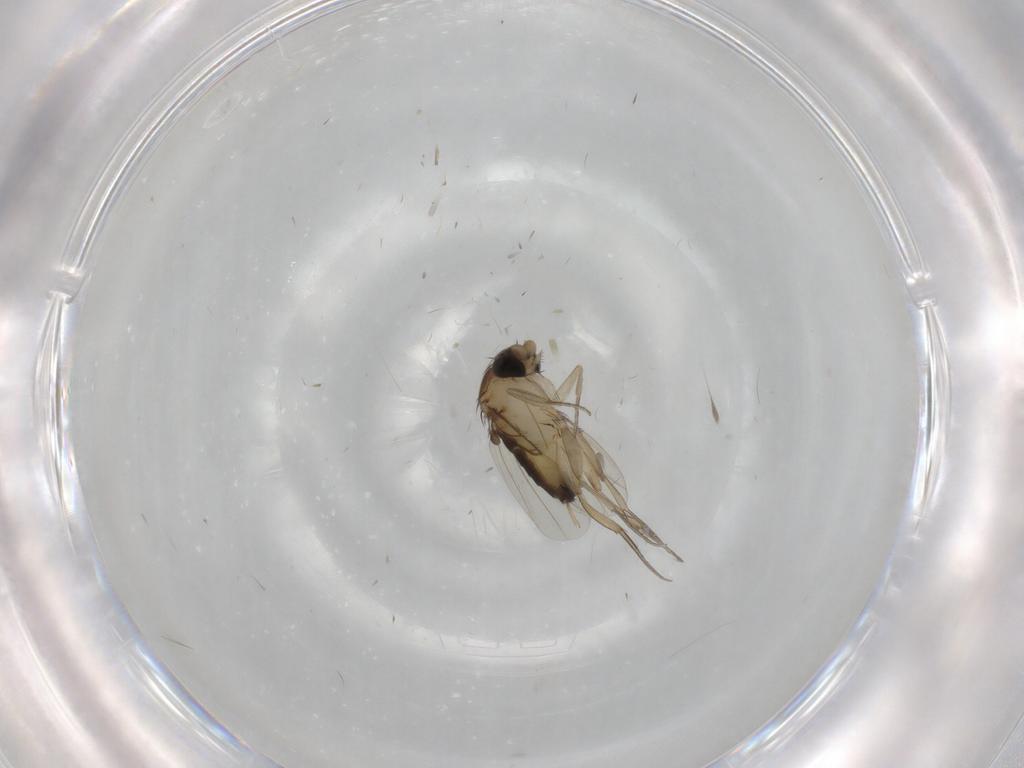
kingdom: Animalia
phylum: Arthropoda
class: Insecta
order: Diptera
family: Phoridae
